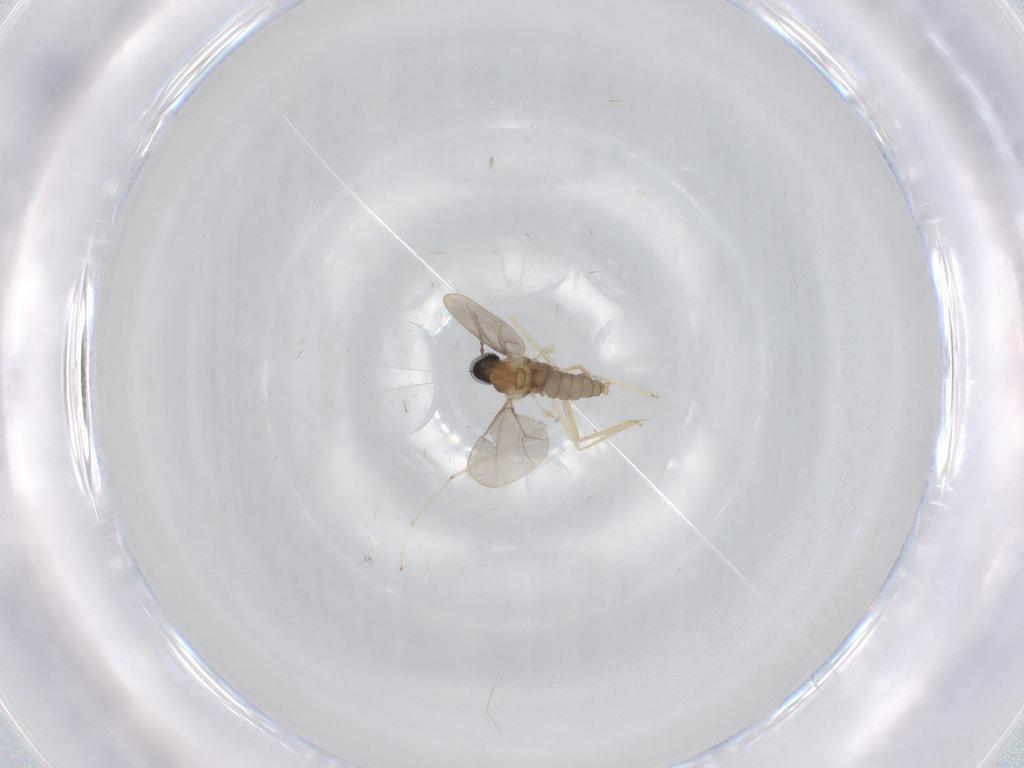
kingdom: Animalia
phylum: Arthropoda
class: Insecta
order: Diptera
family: Cecidomyiidae
